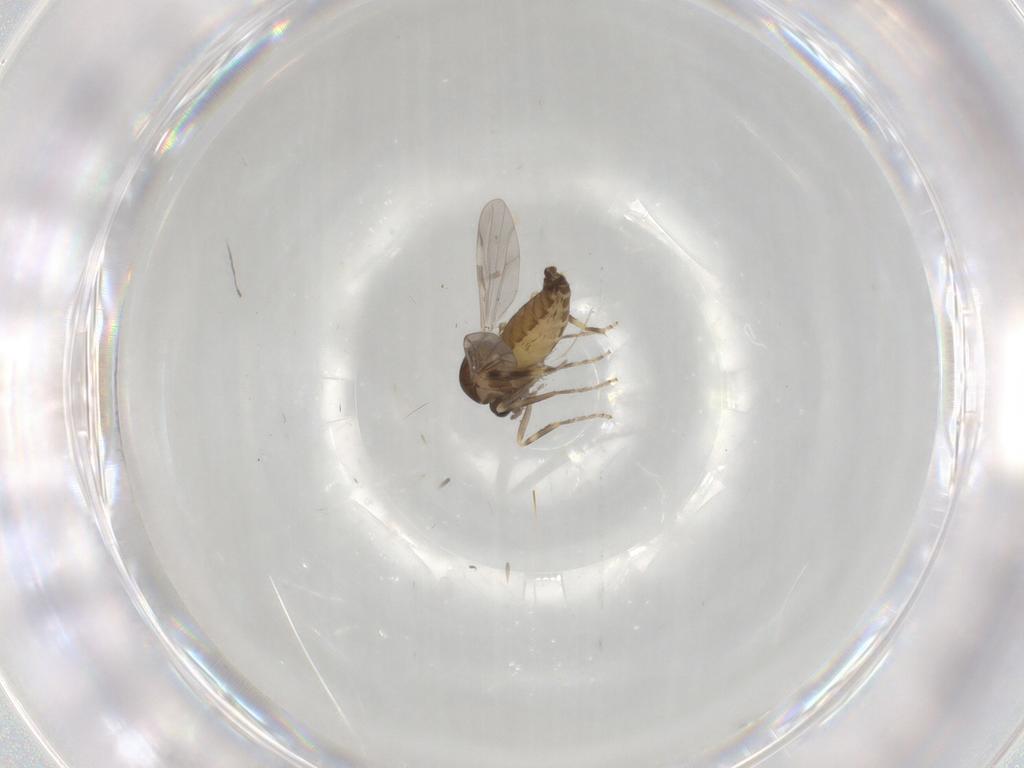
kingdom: Animalia
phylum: Arthropoda
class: Insecta
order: Diptera
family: Ceratopogonidae
